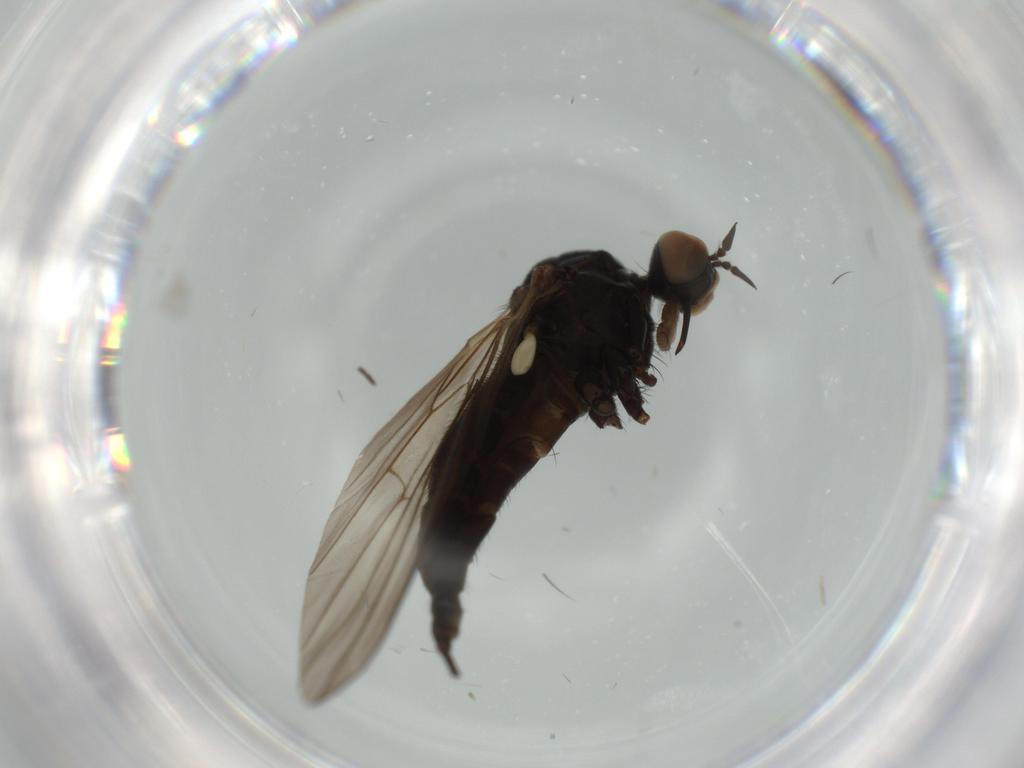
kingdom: Animalia
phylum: Arthropoda
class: Insecta
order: Diptera
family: Empididae
